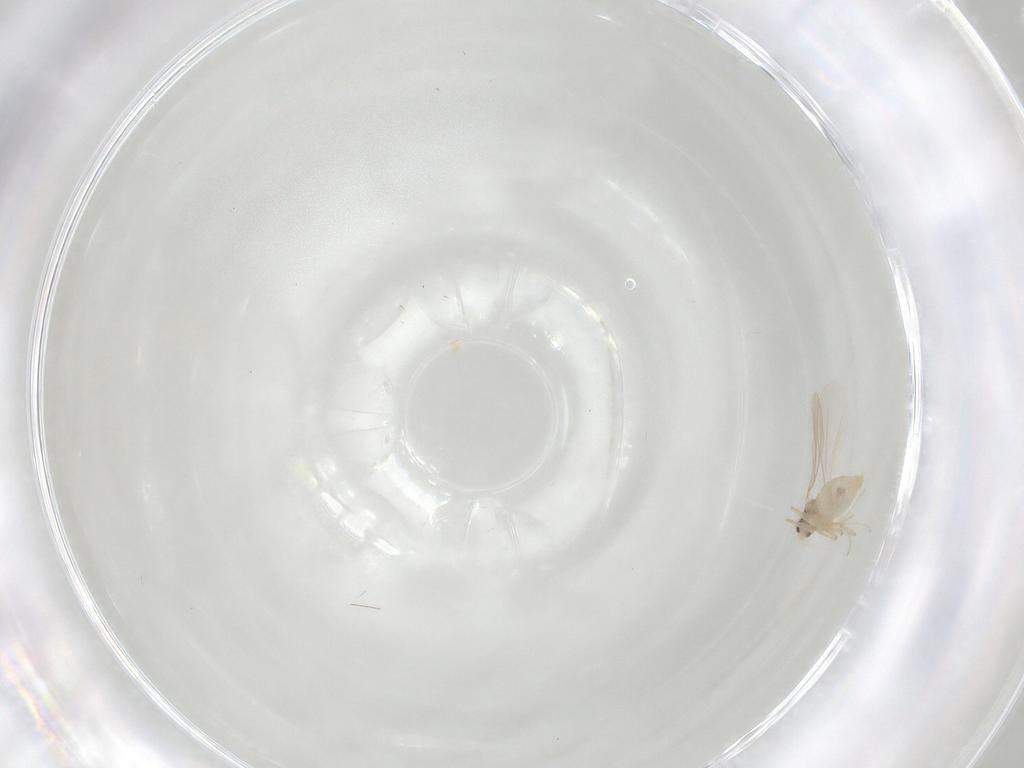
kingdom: Animalia
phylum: Arthropoda
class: Insecta
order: Diptera
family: Cecidomyiidae
